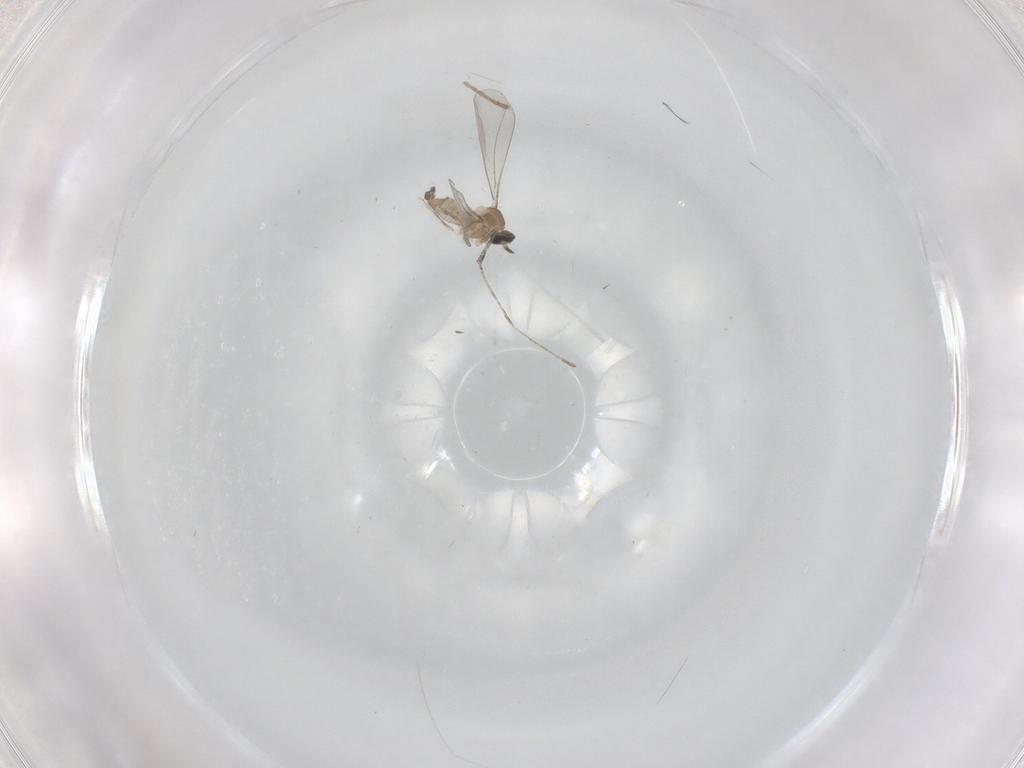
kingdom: Animalia
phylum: Arthropoda
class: Insecta
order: Diptera
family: Cecidomyiidae
